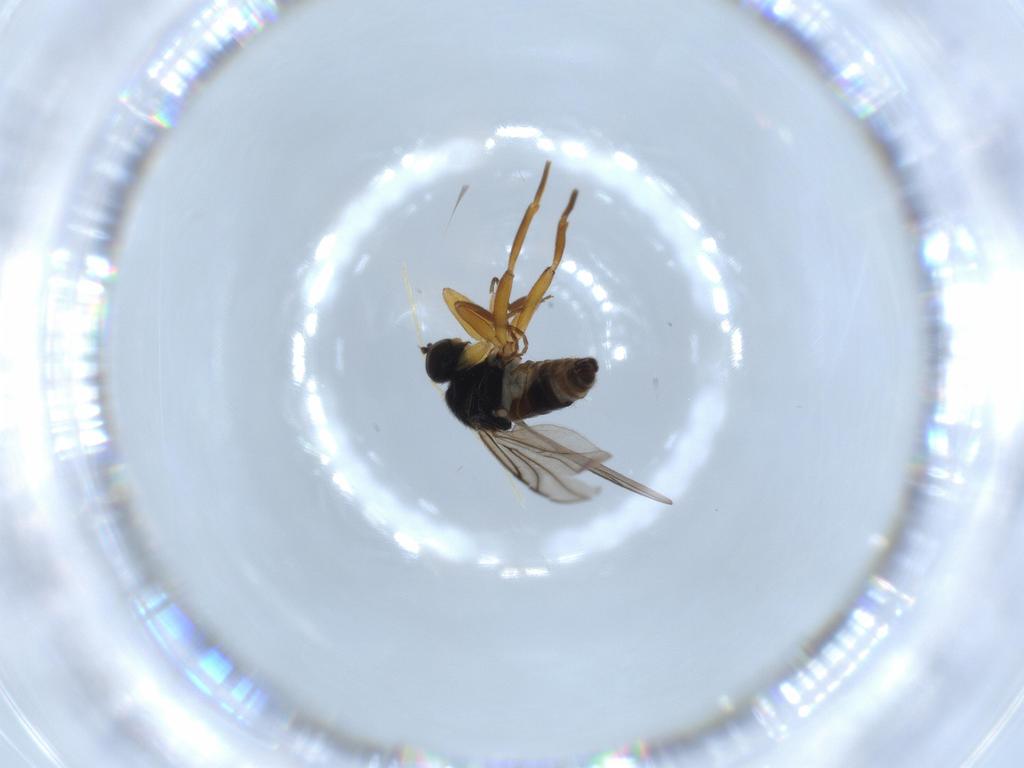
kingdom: Animalia
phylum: Arthropoda
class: Insecta
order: Diptera
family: Hybotidae
